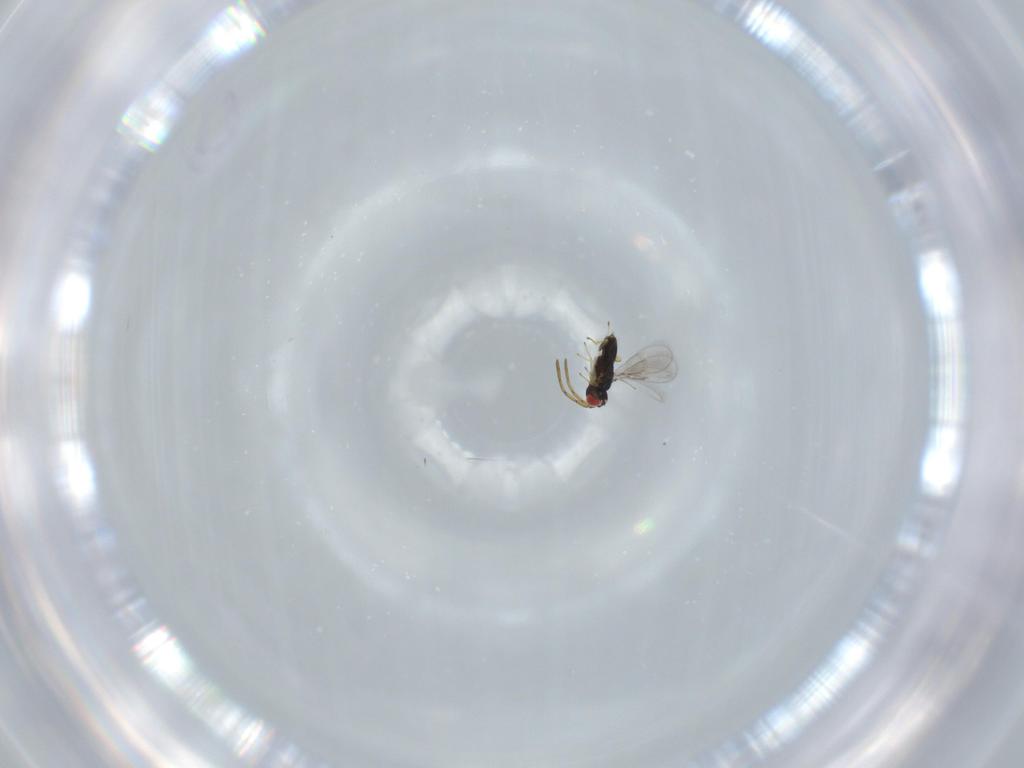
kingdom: Animalia
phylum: Arthropoda
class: Insecta
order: Hymenoptera
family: Azotidae
